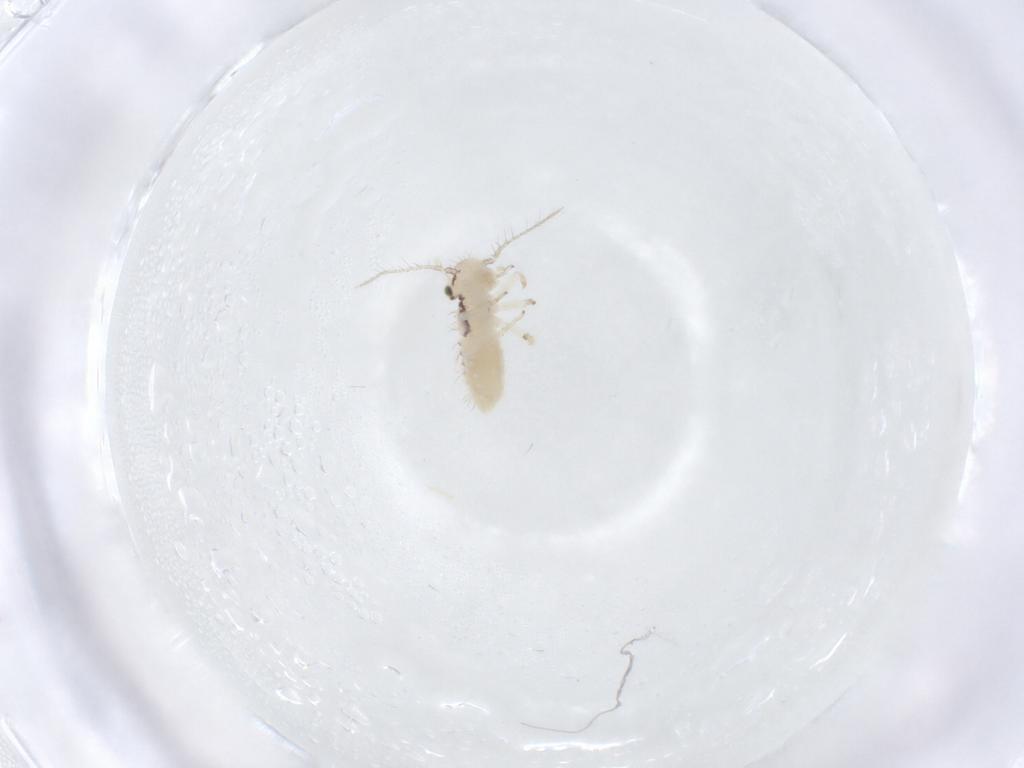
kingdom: Animalia
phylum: Arthropoda
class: Insecta
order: Psocodea
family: Pseudocaeciliidae
